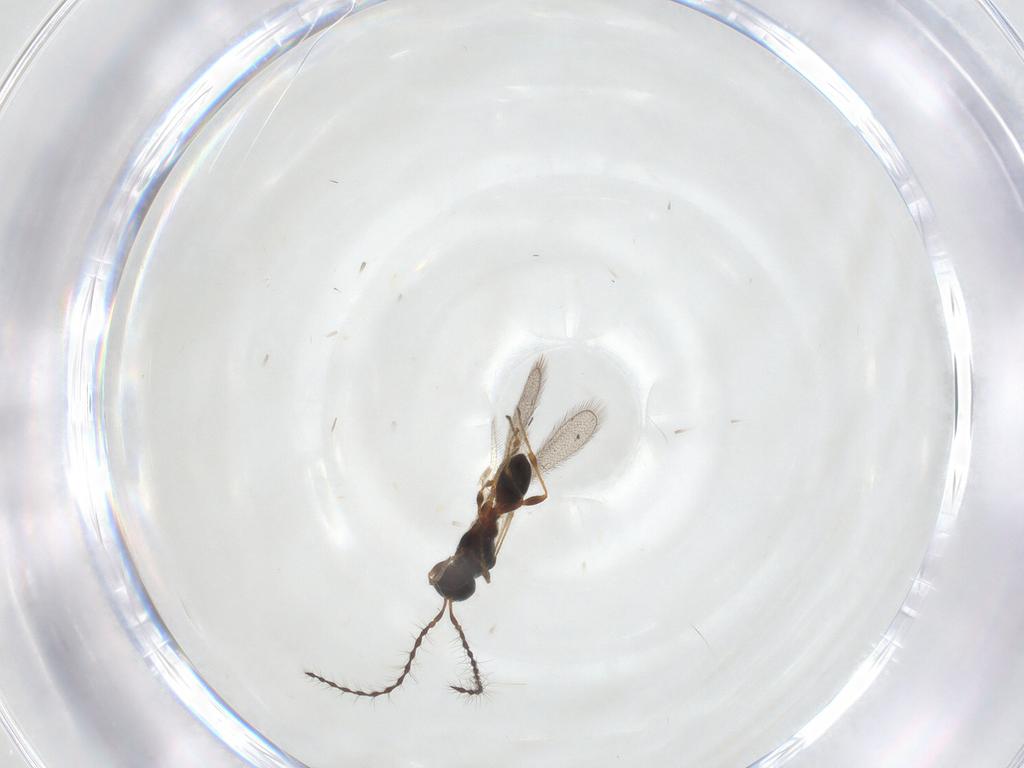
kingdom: Animalia
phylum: Arthropoda
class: Insecta
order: Hymenoptera
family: Diapriidae
